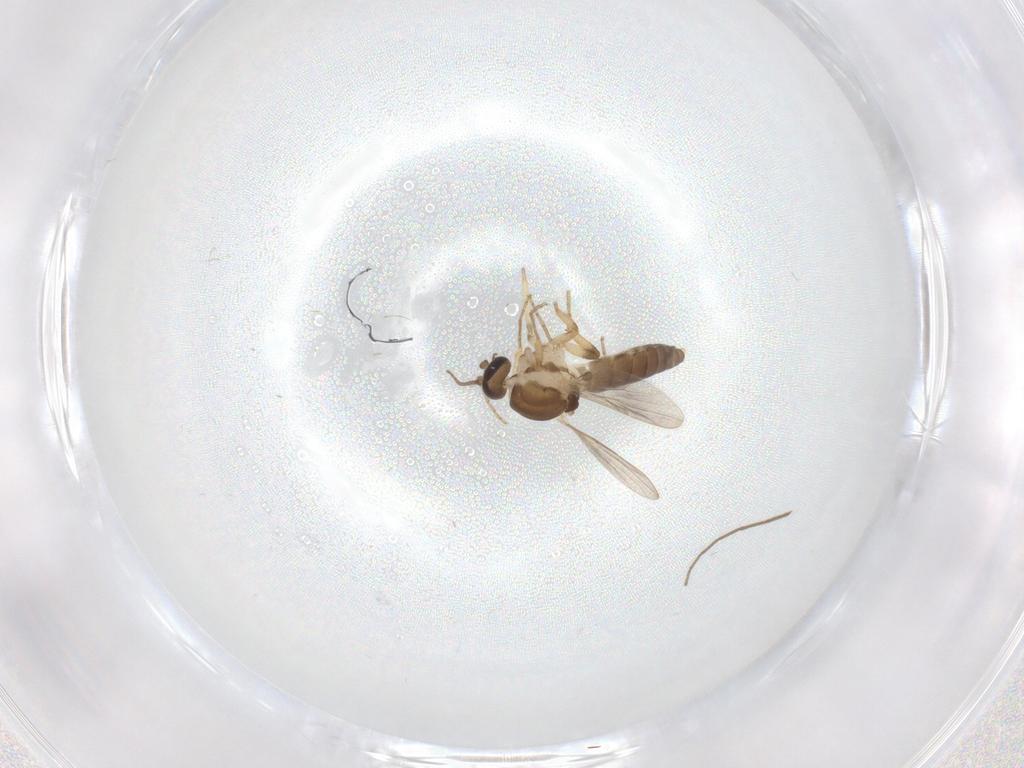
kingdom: Animalia
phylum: Arthropoda
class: Insecta
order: Diptera
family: Ceratopogonidae
